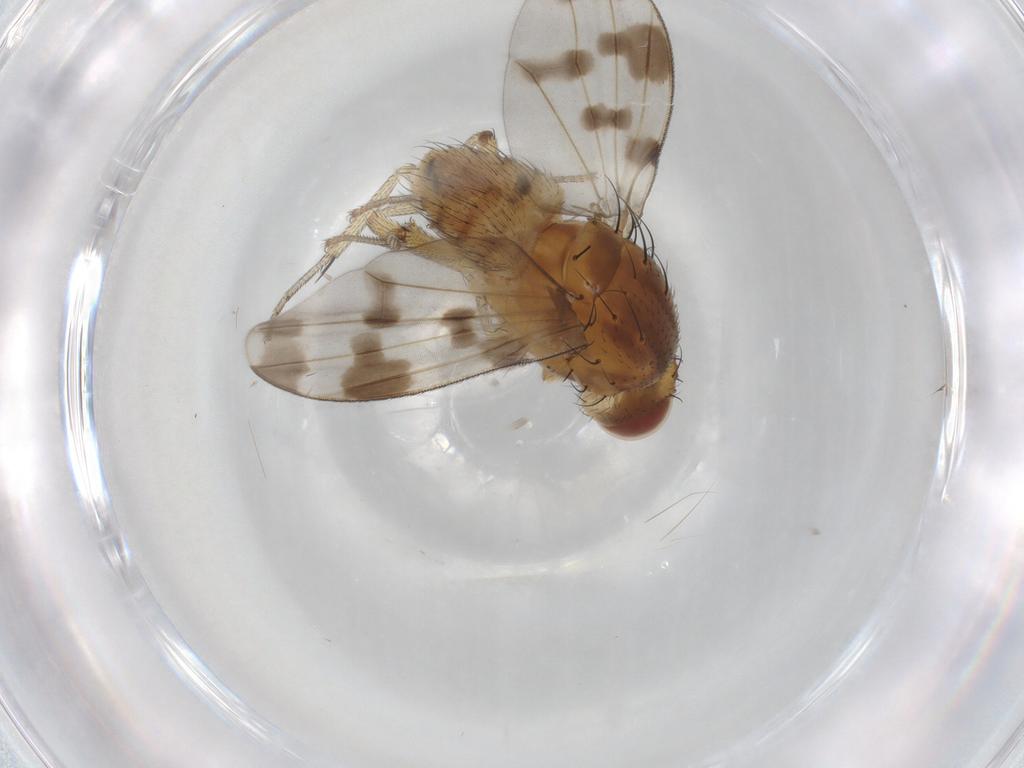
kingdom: Animalia
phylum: Arthropoda
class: Insecta
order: Diptera
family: Lauxaniidae
